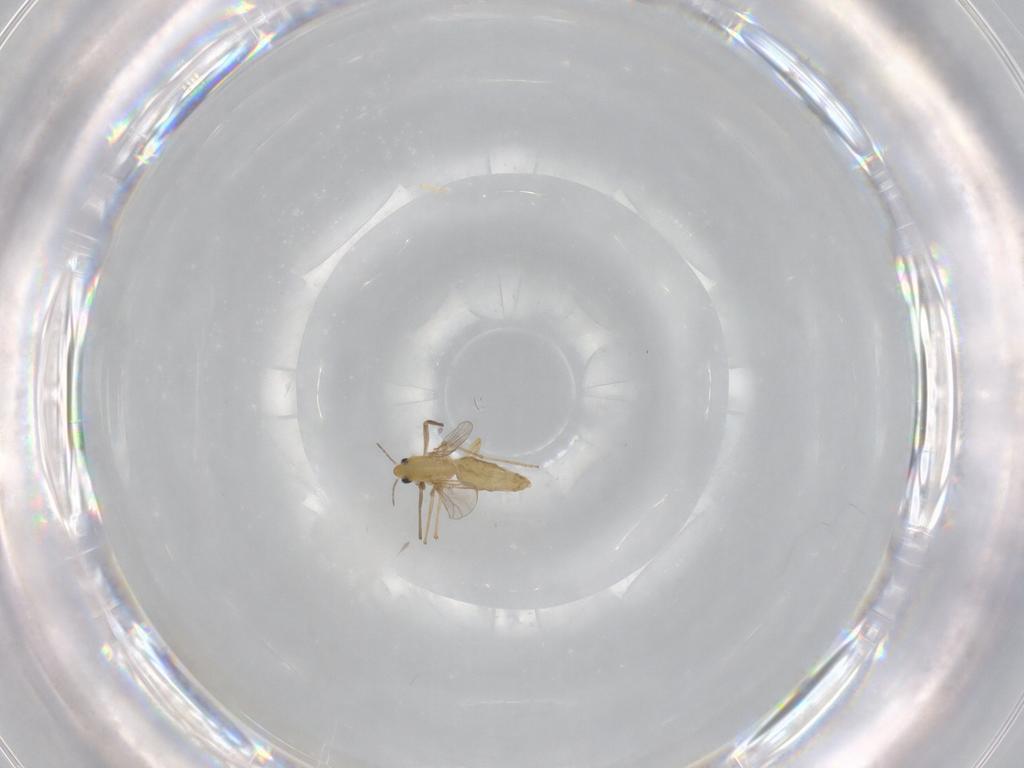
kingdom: Animalia
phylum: Arthropoda
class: Insecta
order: Diptera
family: Chironomidae
